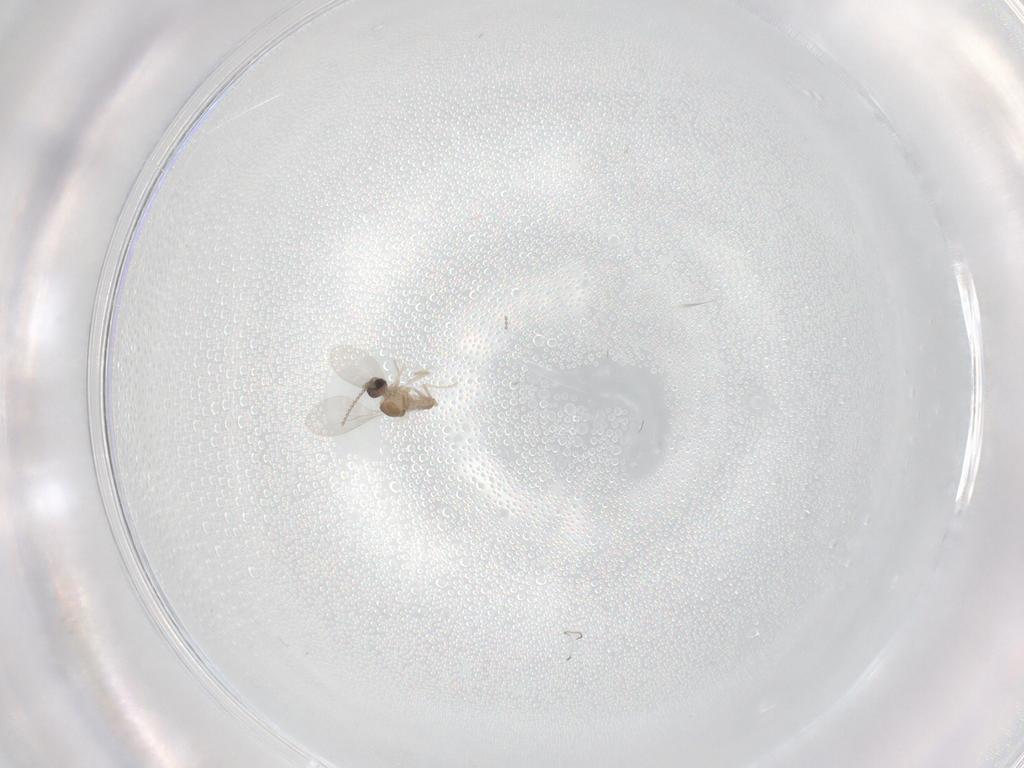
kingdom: Animalia
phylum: Arthropoda
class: Insecta
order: Diptera
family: Cecidomyiidae
